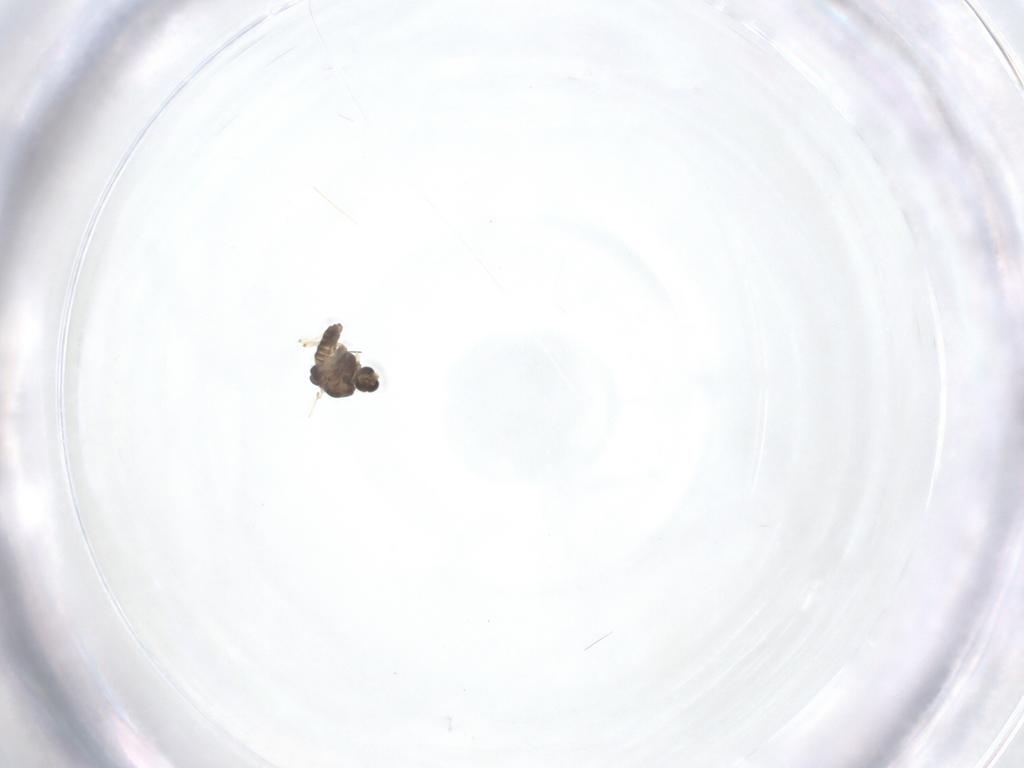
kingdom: Animalia
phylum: Arthropoda
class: Insecta
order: Diptera
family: Chironomidae
